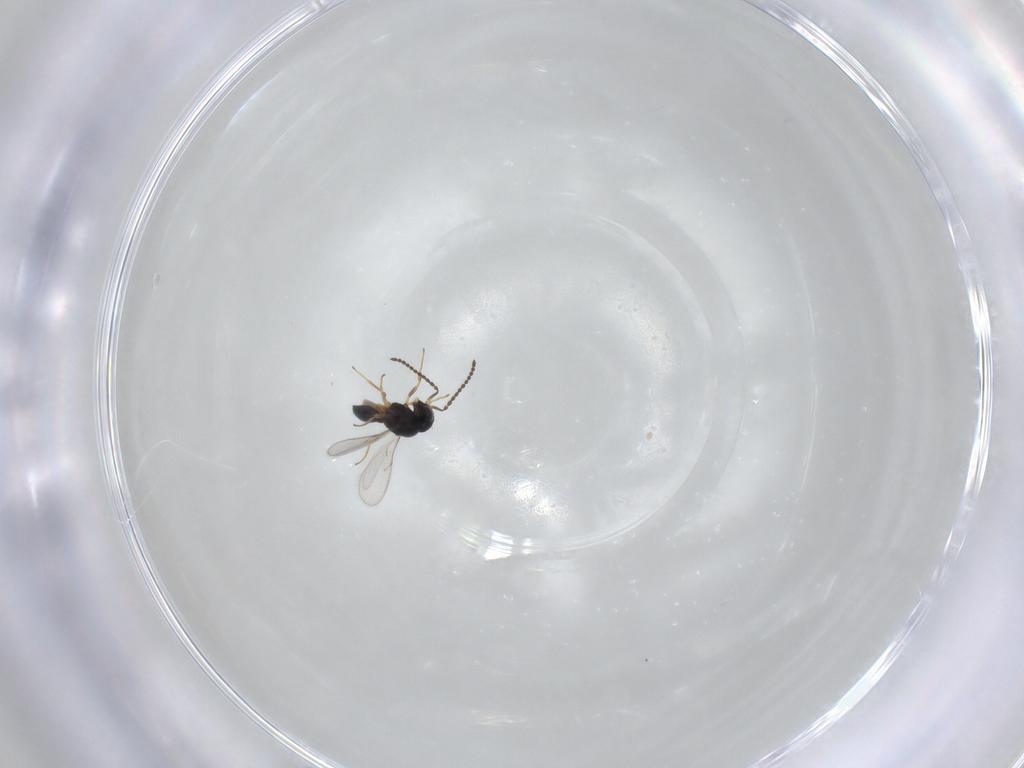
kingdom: Animalia
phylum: Arthropoda
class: Insecta
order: Hymenoptera
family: Scelionidae
